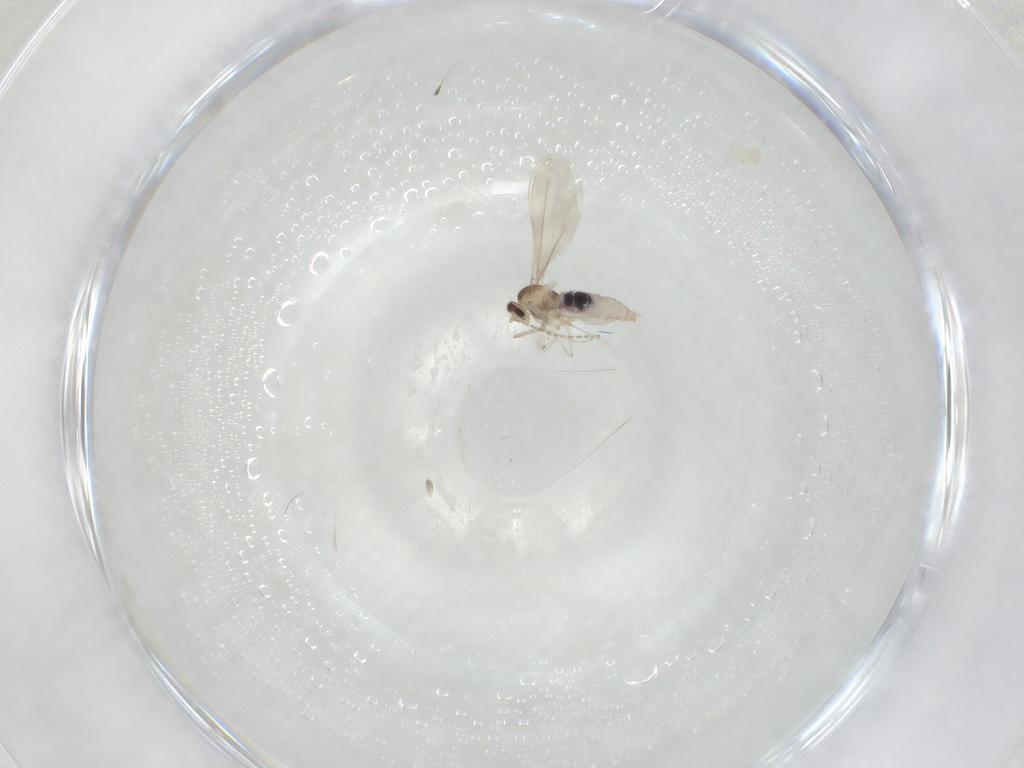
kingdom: Animalia
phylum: Arthropoda
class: Insecta
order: Diptera
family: Cecidomyiidae
